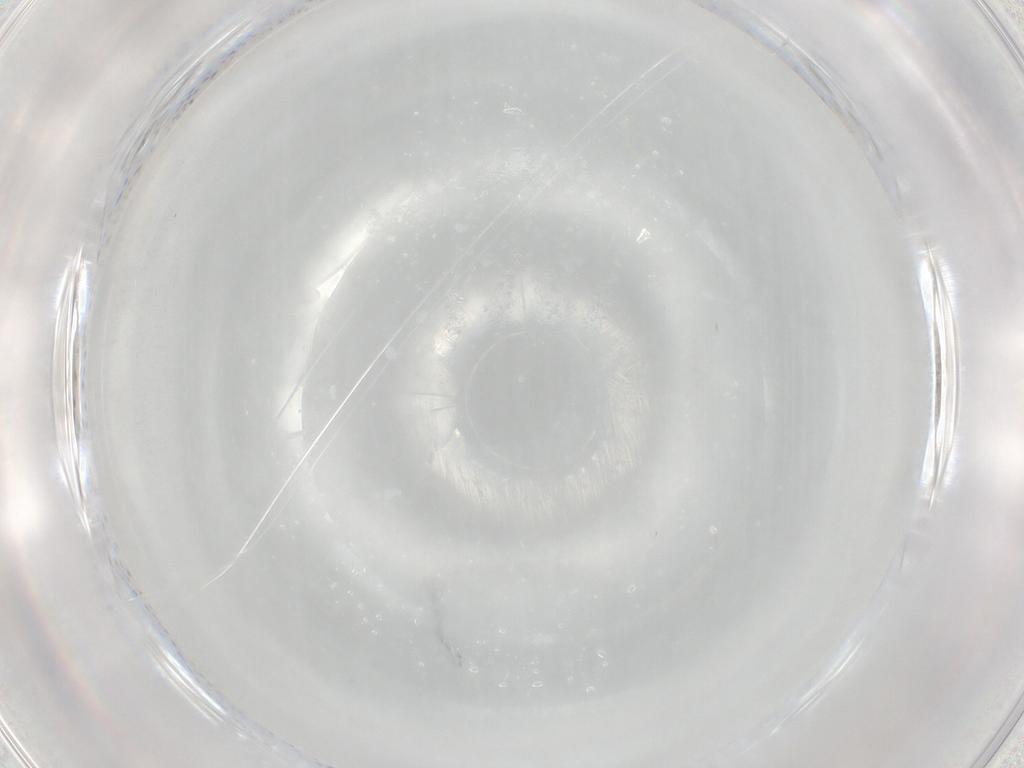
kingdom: Animalia
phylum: Arthropoda
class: Insecta
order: Diptera
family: Chironomidae
